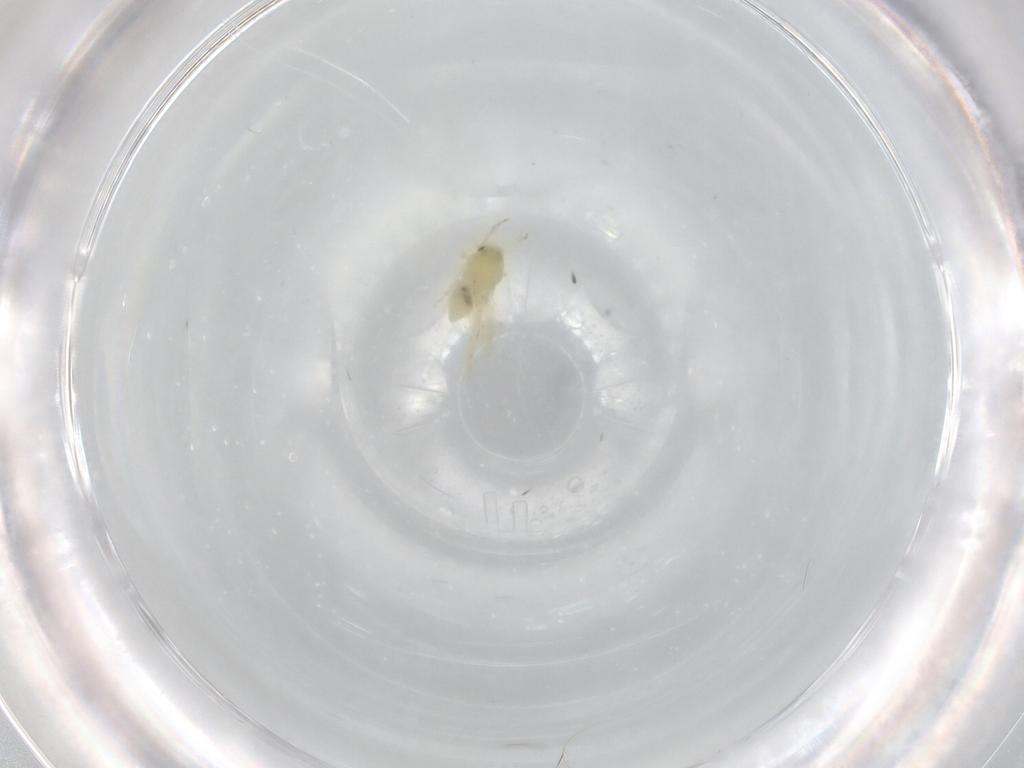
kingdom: Animalia
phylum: Arthropoda
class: Insecta
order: Hemiptera
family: Aleyrodidae
